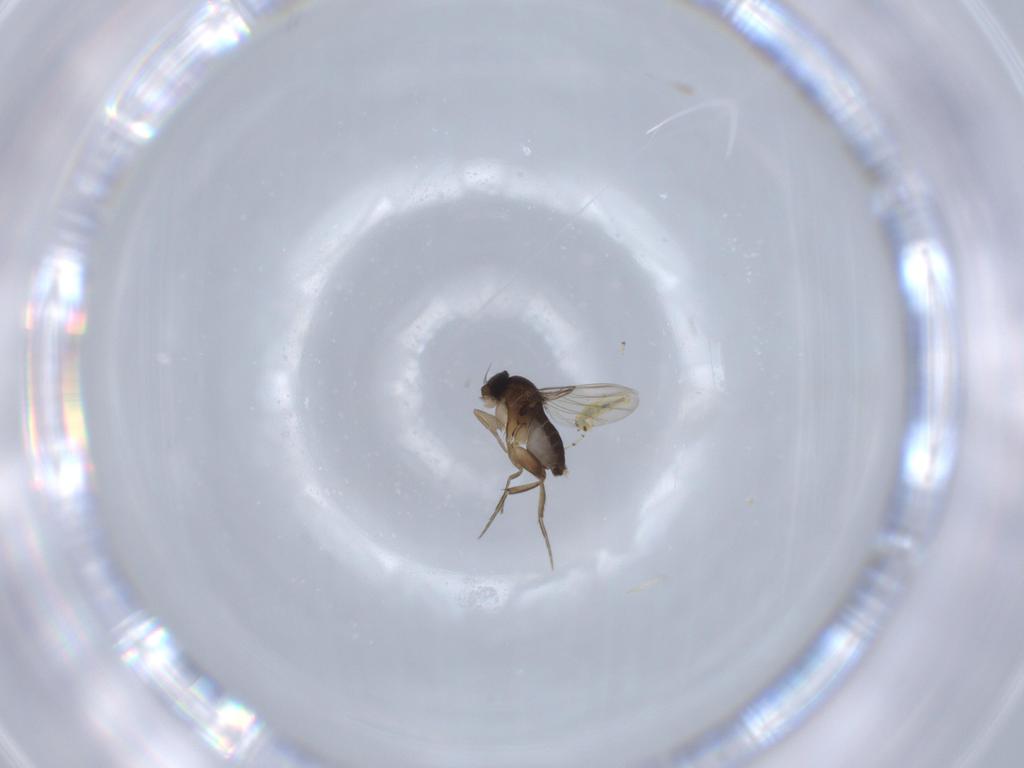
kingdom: Animalia
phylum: Arthropoda
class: Insecta
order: Diptera
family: Phoridae
